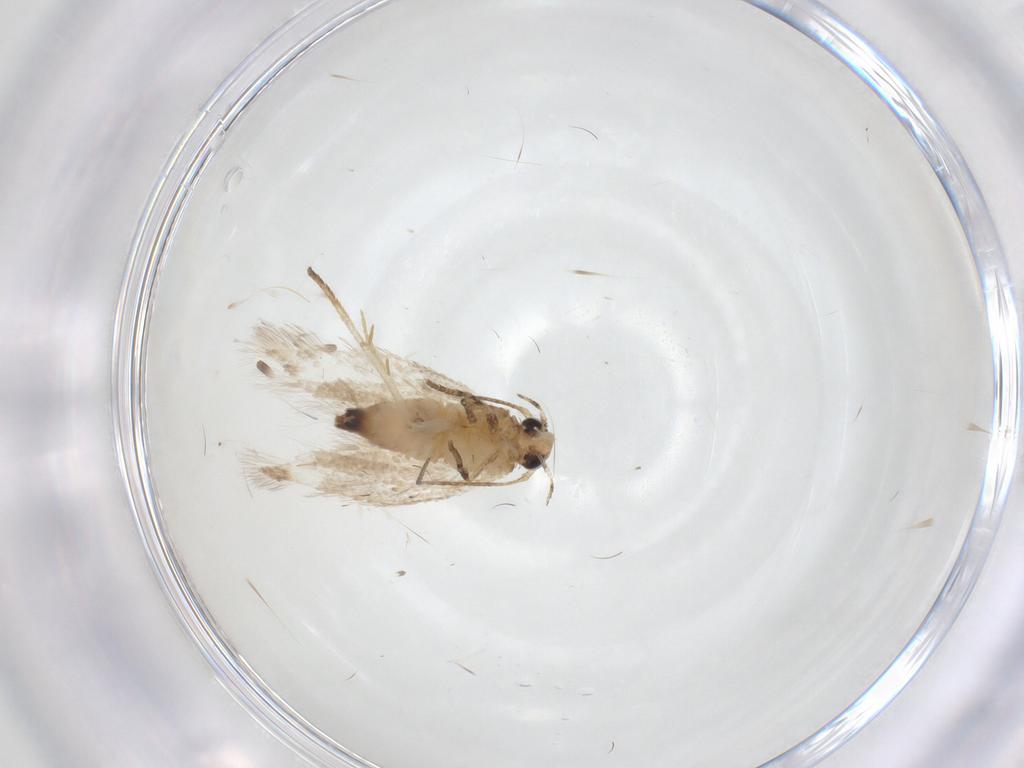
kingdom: Animalia
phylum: Arthropoda
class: Insecta
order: Lepidoptera
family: Gelechiidae
